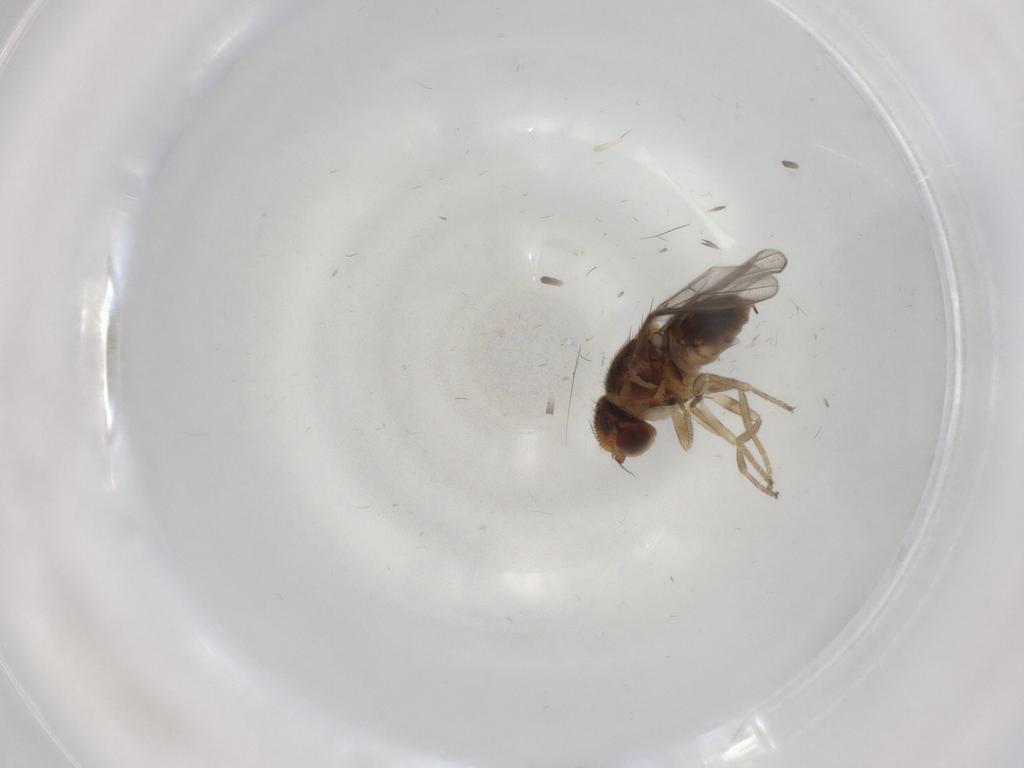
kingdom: Animalia
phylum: Arthropoda
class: Insecta
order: Diptera
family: Chloropidae
